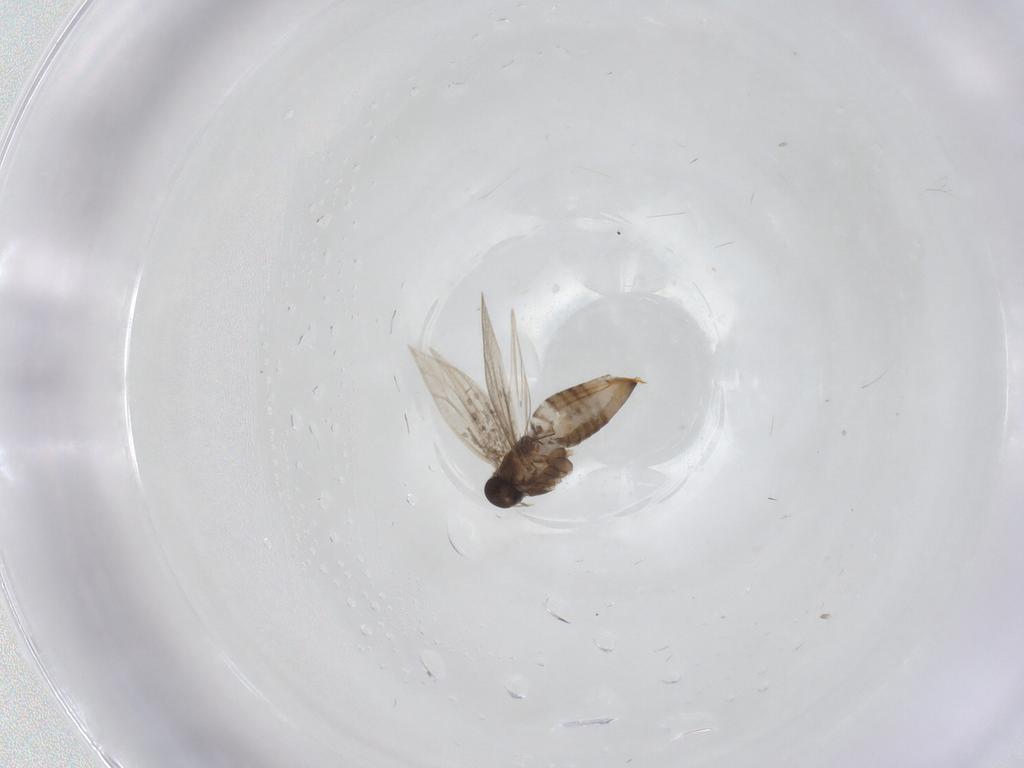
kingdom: Animalia
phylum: Arthropoda
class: Insecta
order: Lepidoptera
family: Heliozelidae
